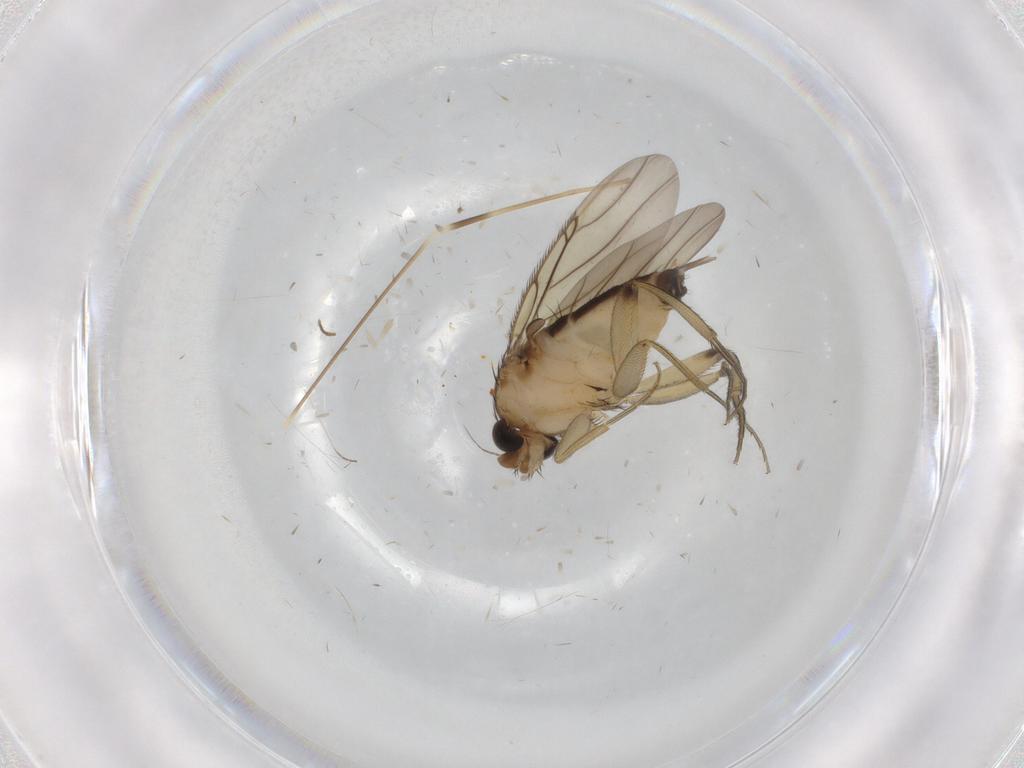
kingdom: Animalia
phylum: Arthropoda
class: Insecta
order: Diptera
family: Phoridae
